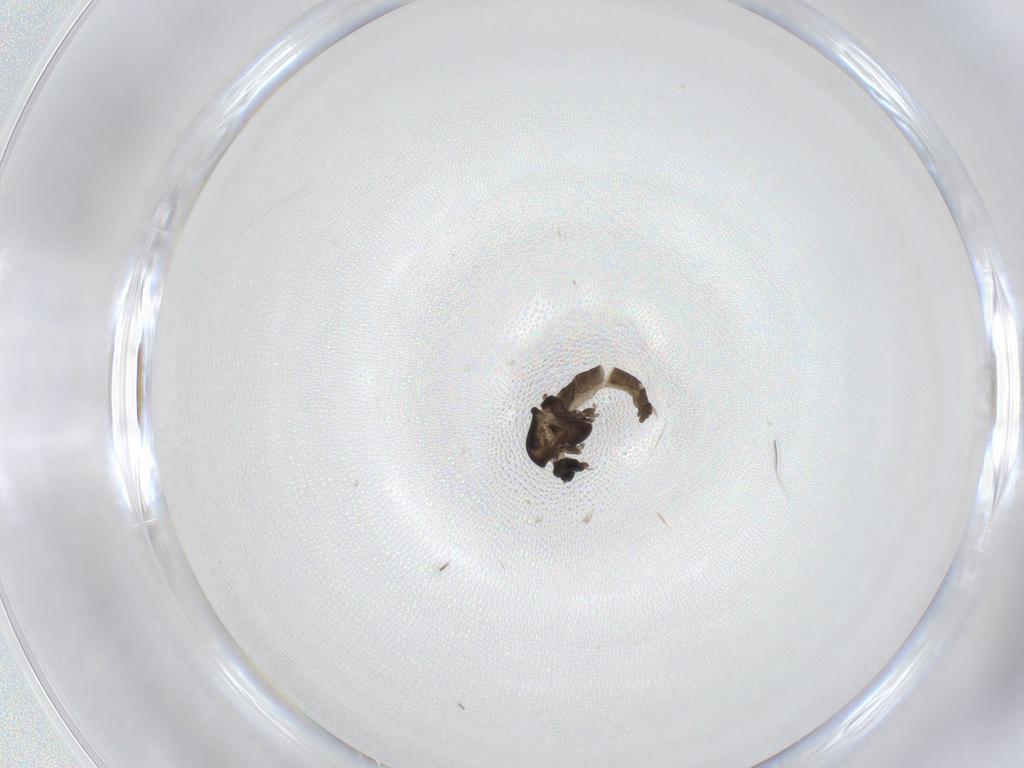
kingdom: Animalia
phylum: Arthropoda
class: Insecta
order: Diptera
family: Chironomidae
